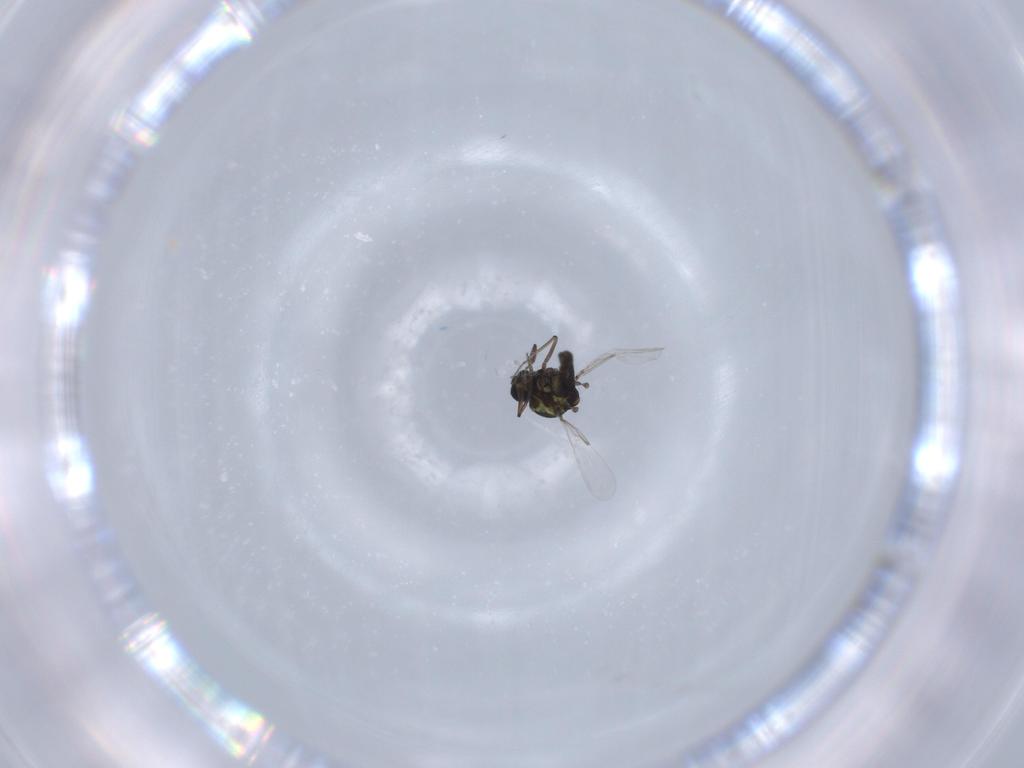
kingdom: Animalia
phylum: Arthropoda
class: Insecta
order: Diptera
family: Ceratopogonidae
